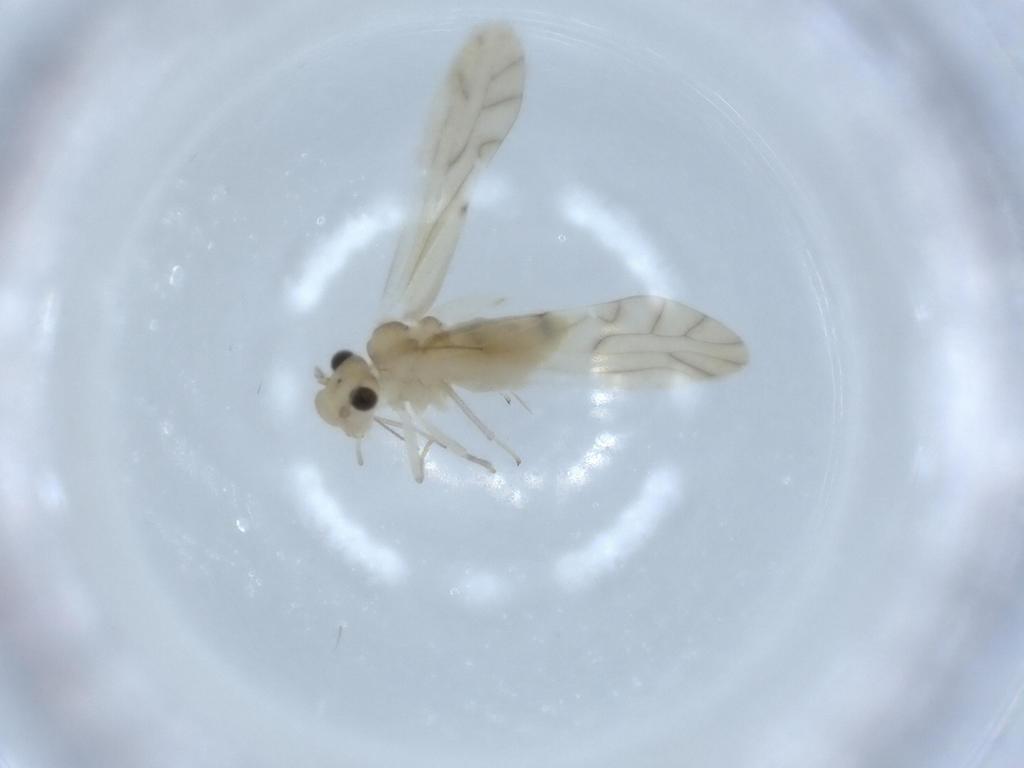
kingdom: Animalia
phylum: Arthropoda
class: Insecta
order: Psocodea
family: Caeciliusidae
